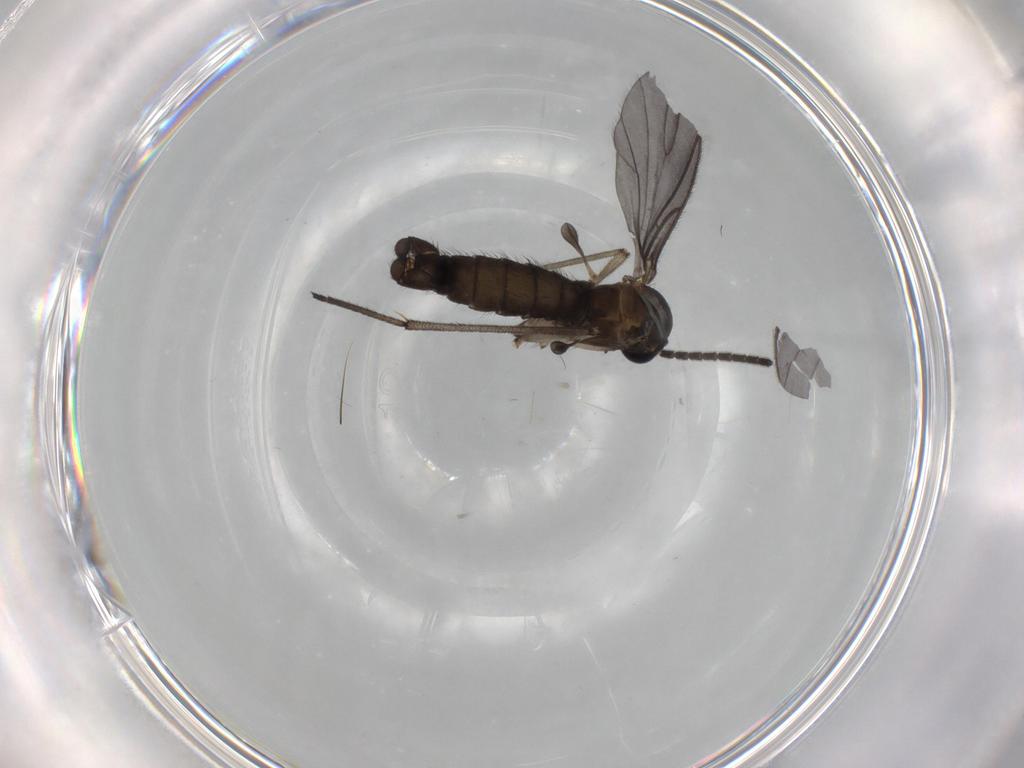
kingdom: Animalia
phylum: Arthropoda
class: Insecta
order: Diptera
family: Sciaridae
